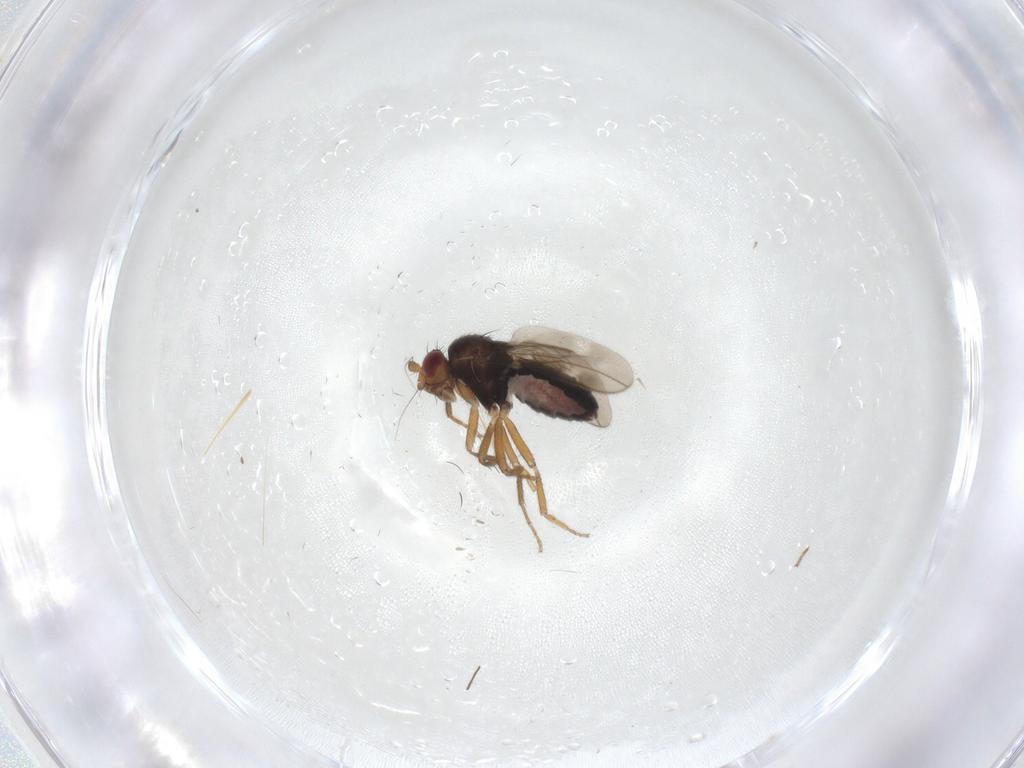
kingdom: Animalia
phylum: Arthropoda
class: Insecta
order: Diptera
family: Sphaeroceridae
